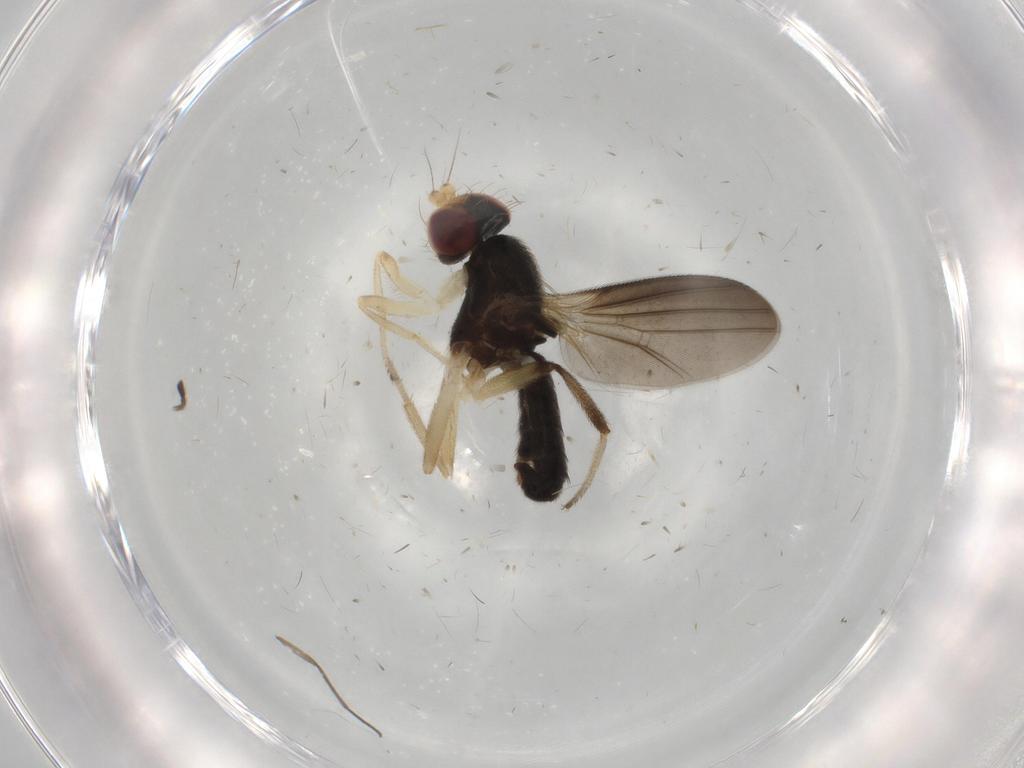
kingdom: Animalia
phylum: Arthropoda
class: Insecta
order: Diptera
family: Clusiidae
